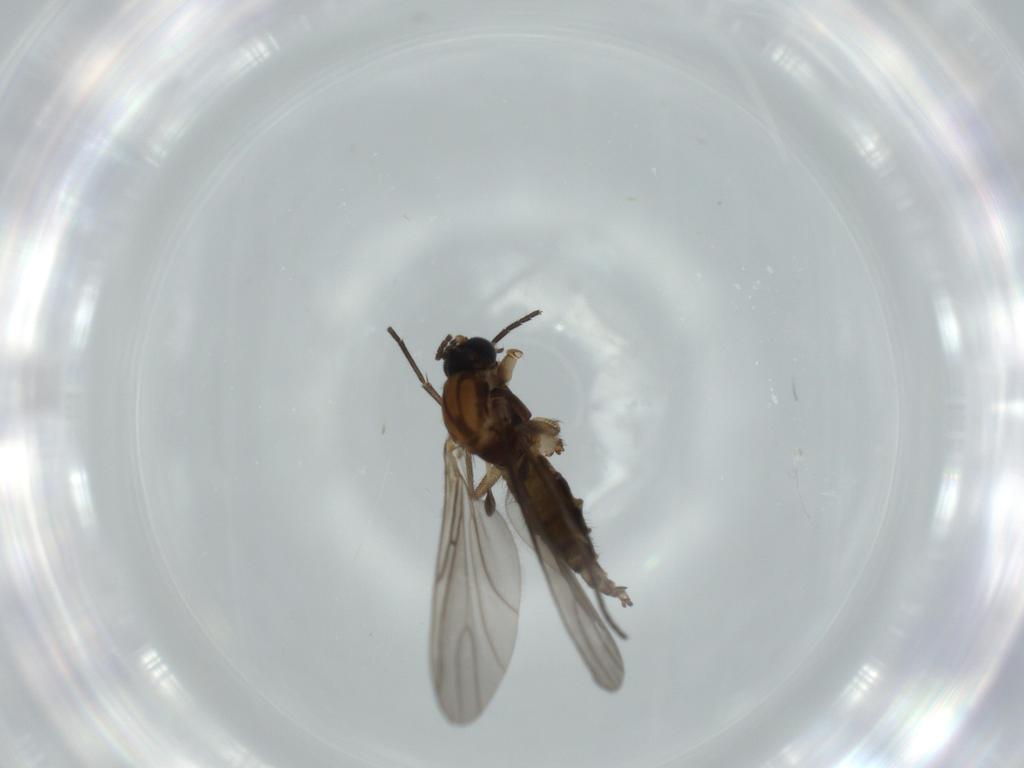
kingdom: Animalia
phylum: Arthropoda
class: Insecta
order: Diptera
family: Sciaridae
